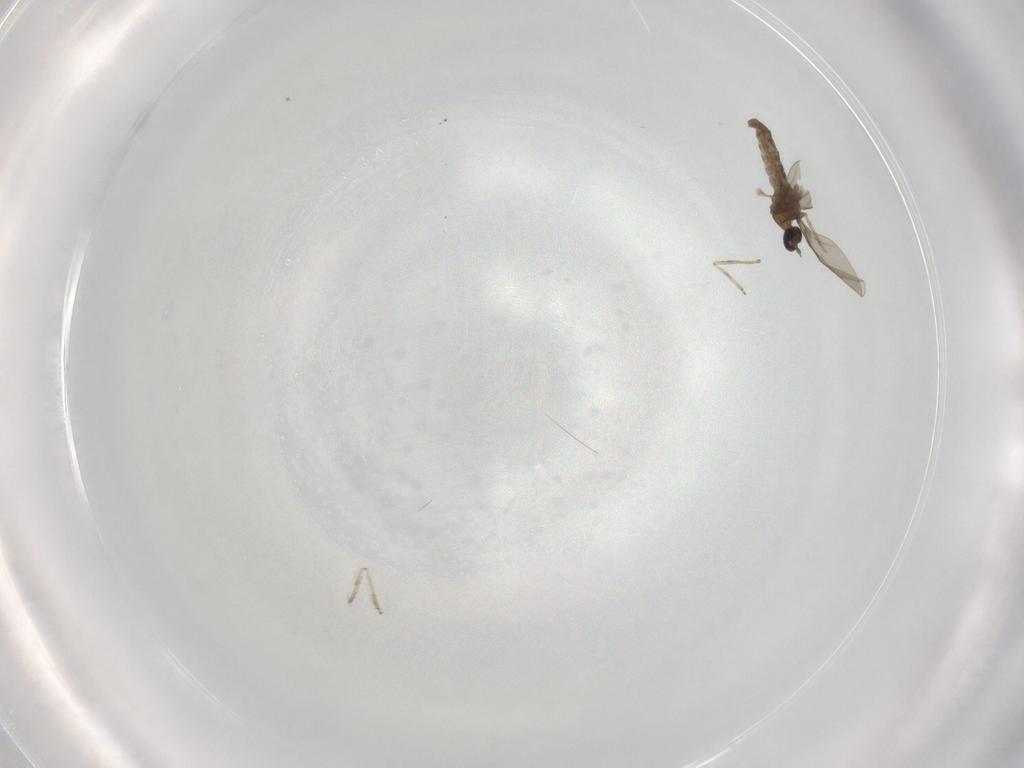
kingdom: Animalia
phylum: Arthropoda
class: Insecta
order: Diptera
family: Cecidomyiidae
